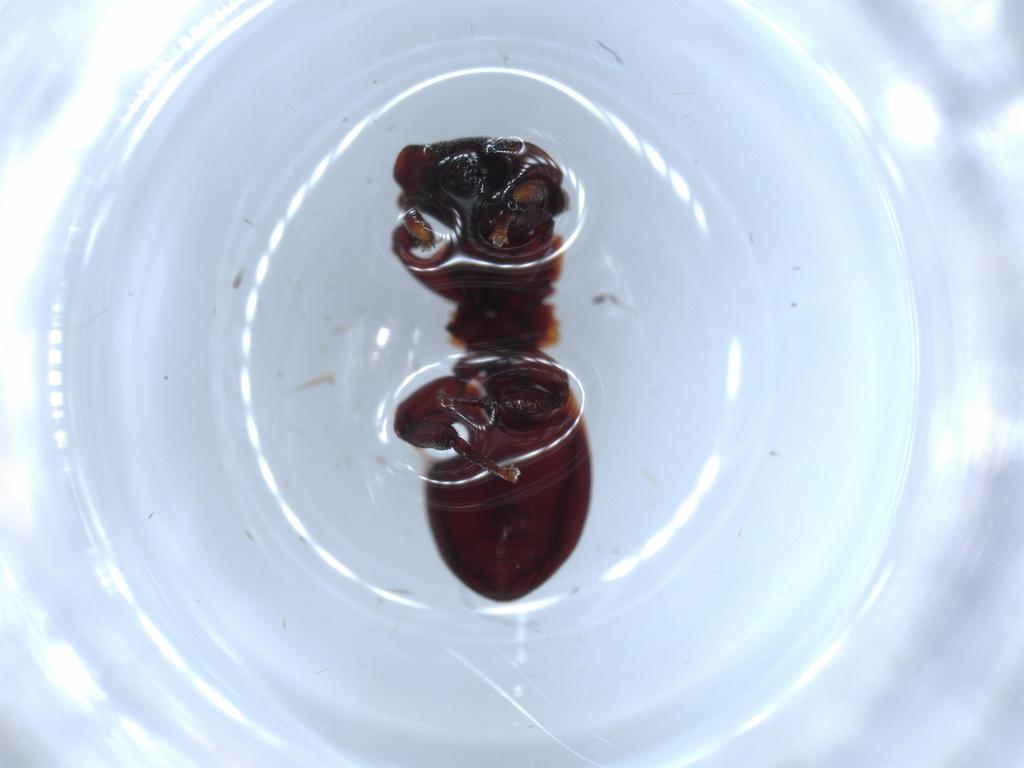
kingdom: Animalia
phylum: Arthropoda
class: Insecta
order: Hymenoptera
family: Formicidae
